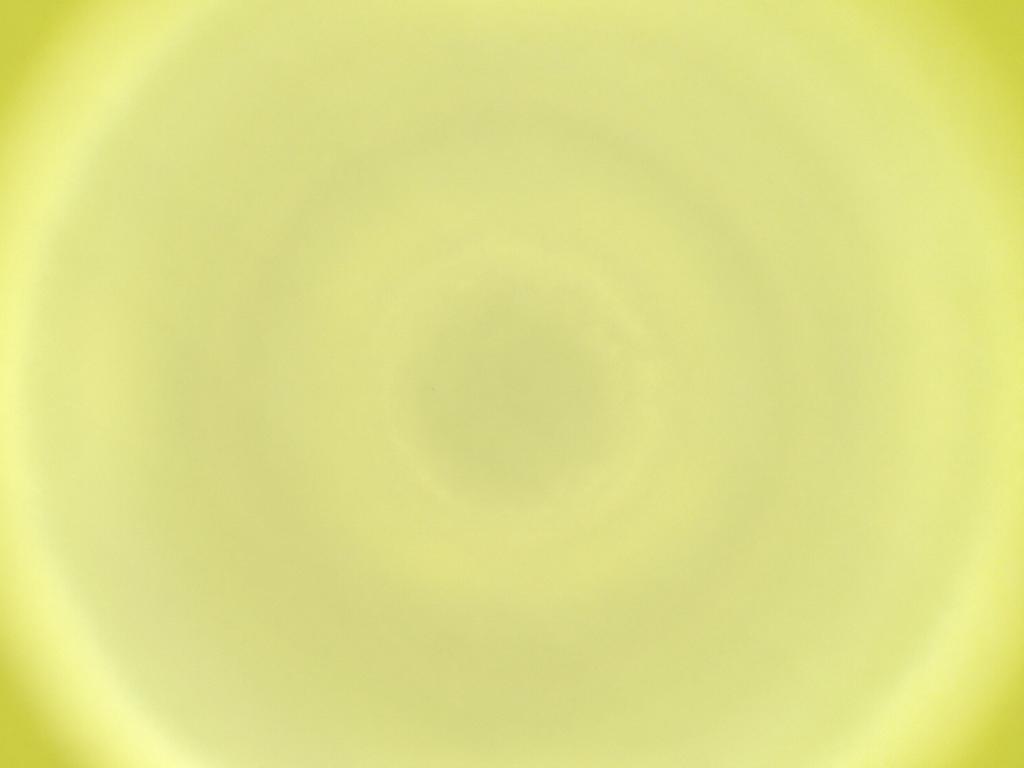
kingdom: Animalia
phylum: Arthropoda
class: Insecta
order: Diptera
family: Cecidomyiidae
